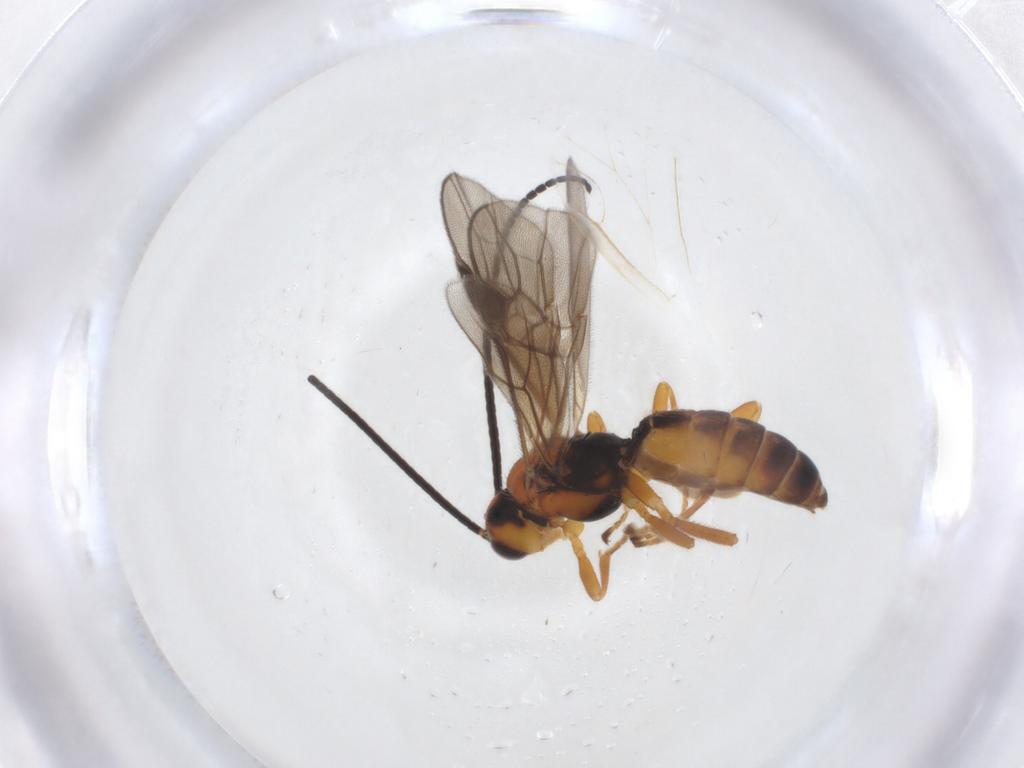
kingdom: Animalia
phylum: Arthropoda
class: Insecta
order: Hymenoptera
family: Braconidae
